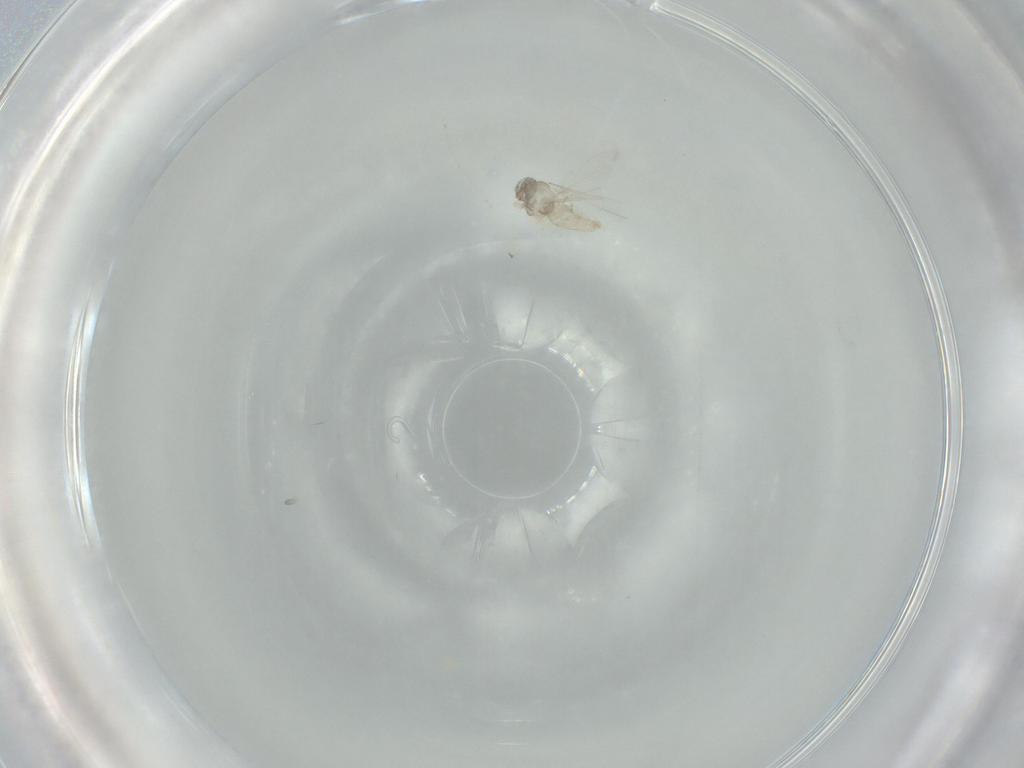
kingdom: Animalia
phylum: Arthropoda
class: Insecta
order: Diptera
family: Cecidomyiidae
